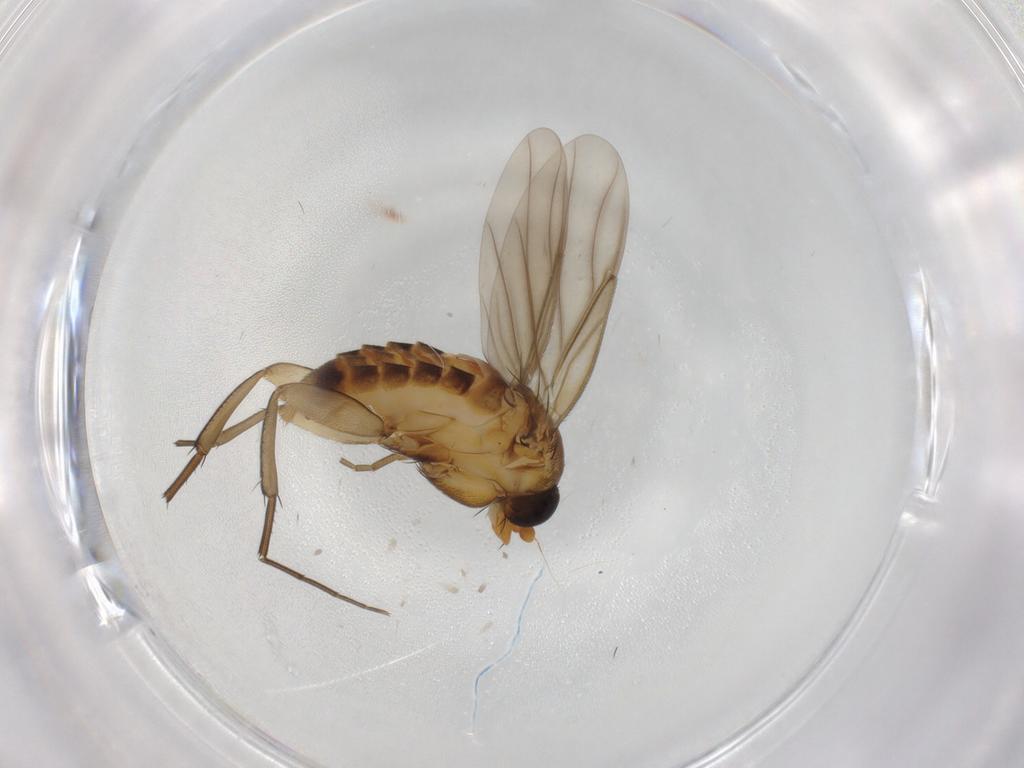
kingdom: Animalia
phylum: Arthropoda
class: Insecta
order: Diptera
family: Phoridae
